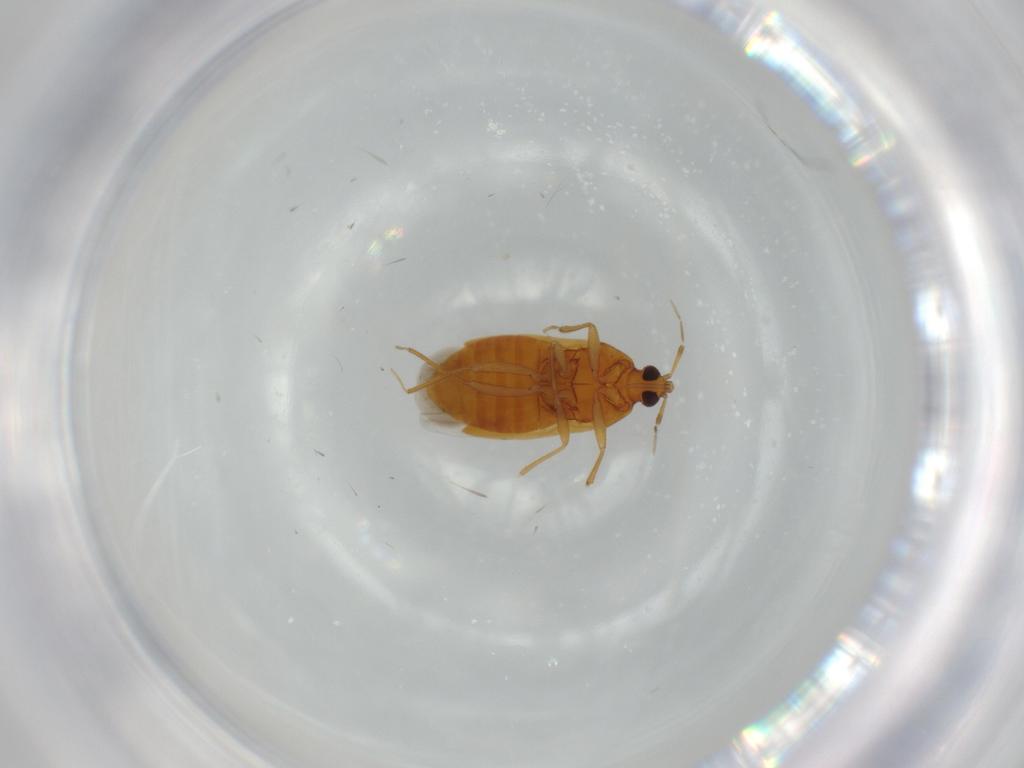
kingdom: Animalia
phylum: Arthropoda
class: Insecta
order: Hemiptera
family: Anthocoridae
